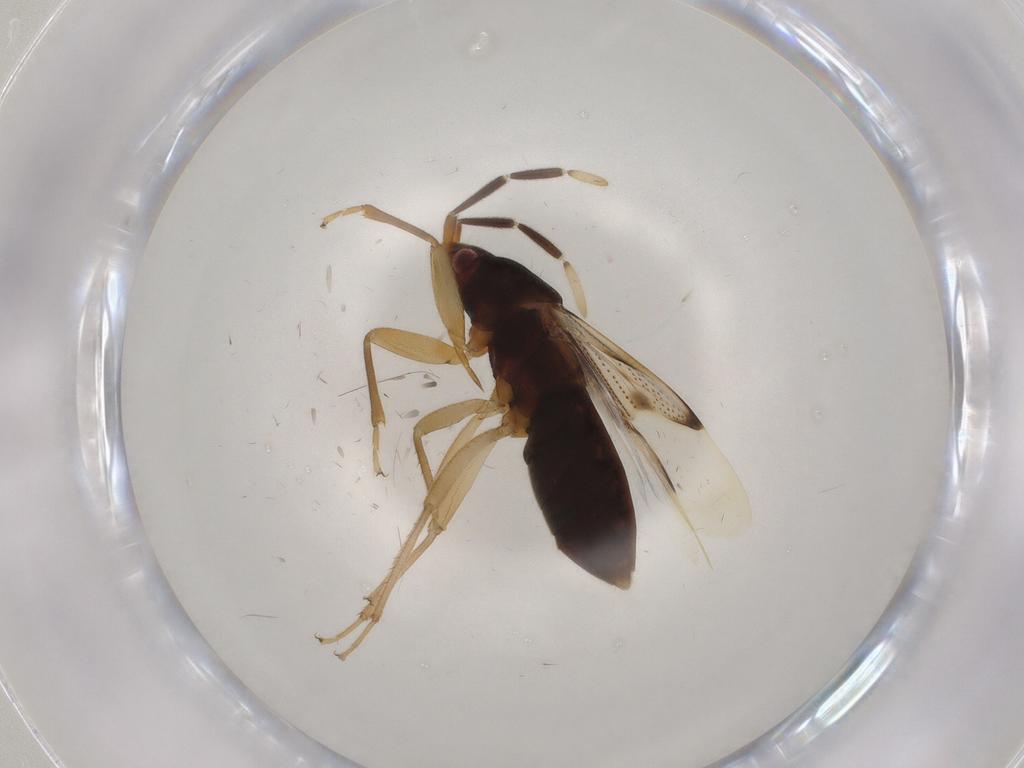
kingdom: Animalia
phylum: Arthropoda
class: Insecta
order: Hemiptera
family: Rhyparochromidae
